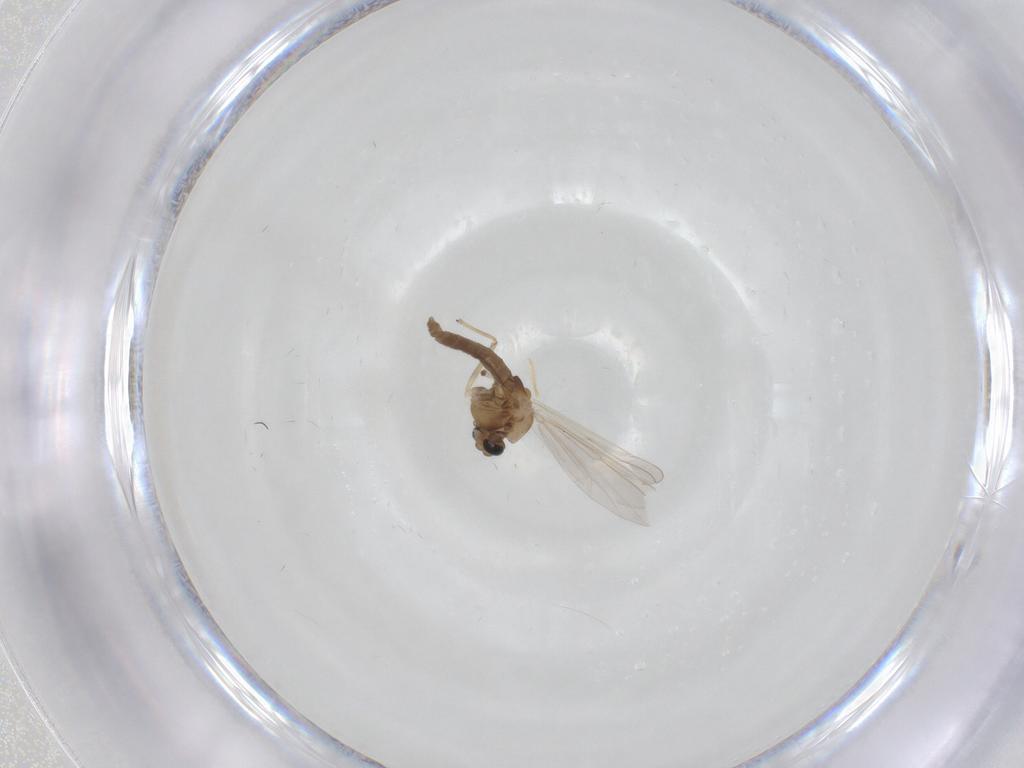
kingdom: Animalia
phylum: Arthropoda
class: Insecta
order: Diptera
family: Chironomidae
